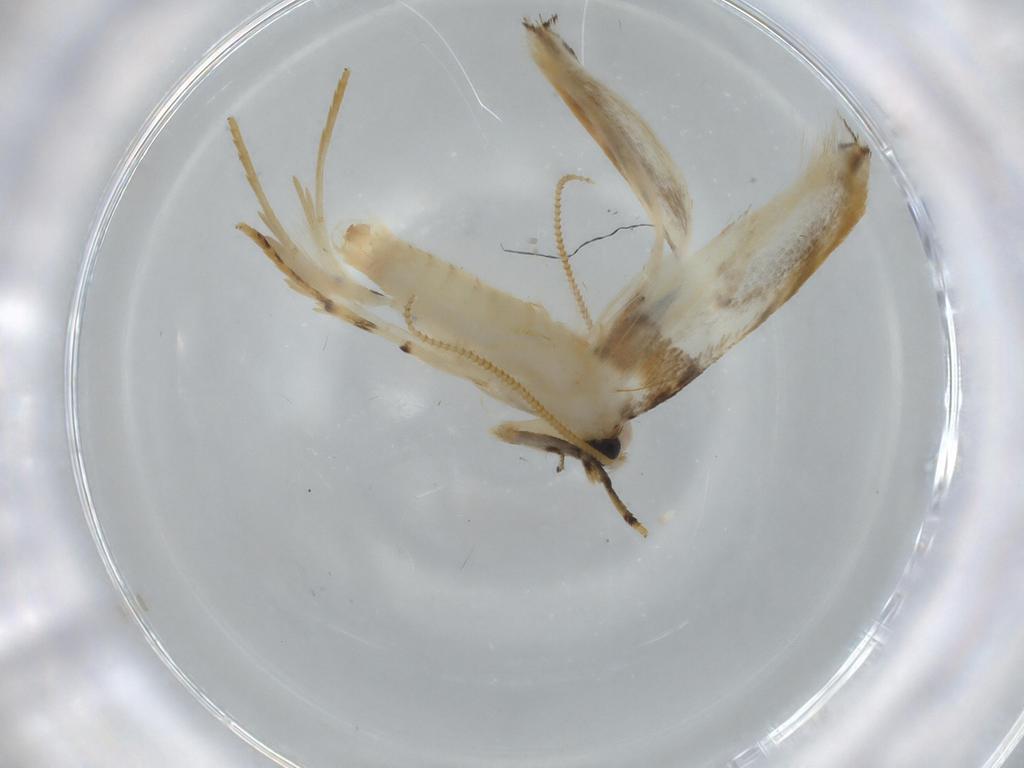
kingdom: Animalia
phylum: Arthropoda
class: Insecta
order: Lepidoptera
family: Tineidae
